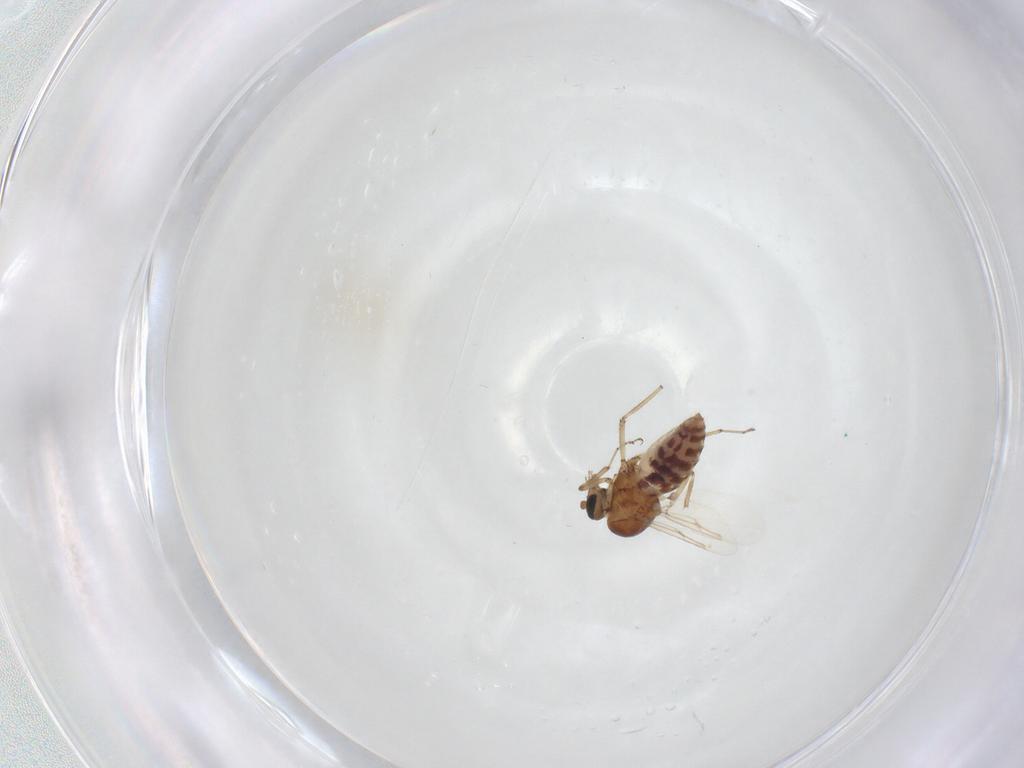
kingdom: Animalia
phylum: Arthropoda
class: Insecta
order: Diptera
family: Ceratopogonidae
